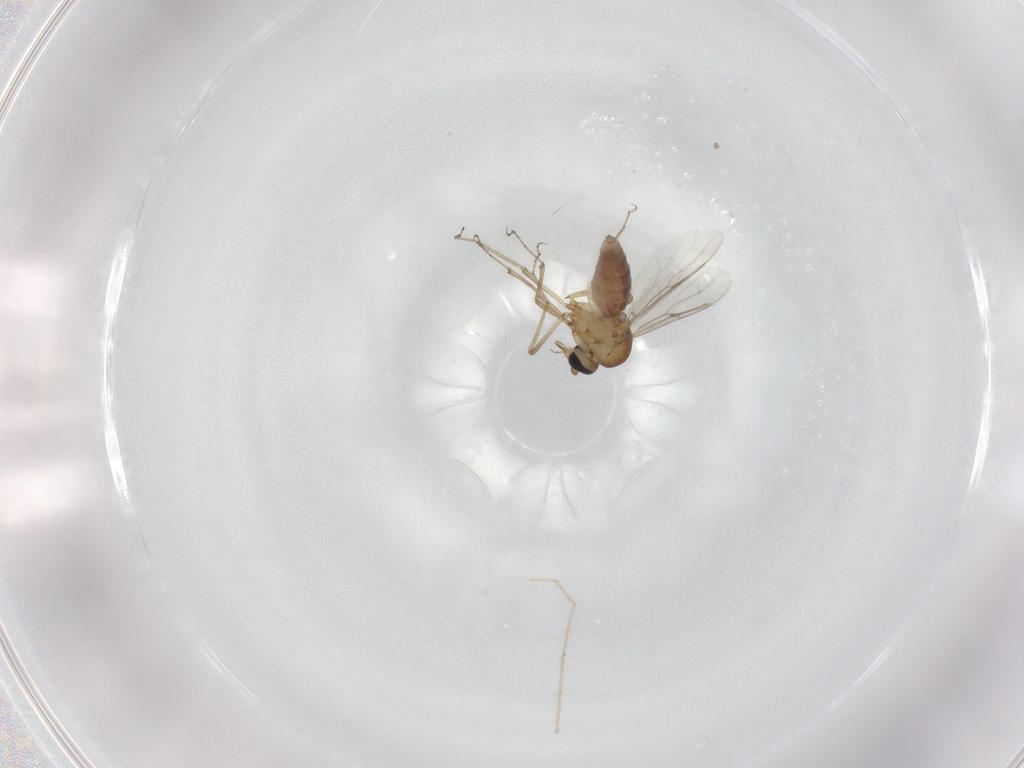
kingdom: Animalia
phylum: Arthropoda
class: Insecta
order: Diptera
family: Chironomidae
